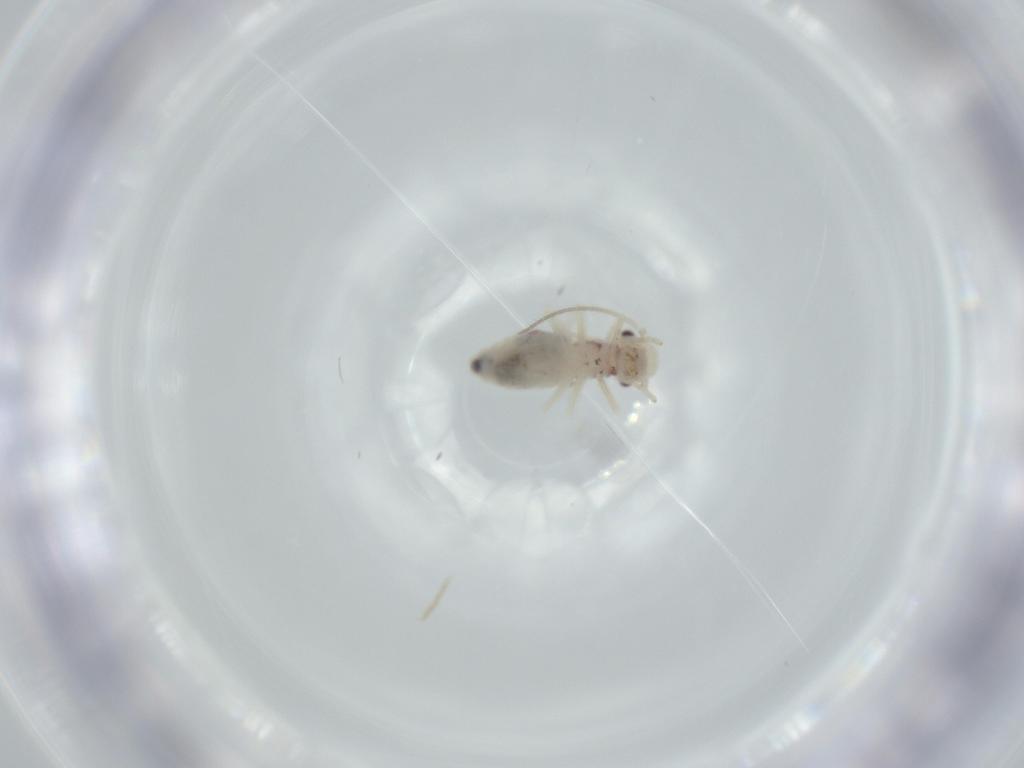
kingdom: Animalia
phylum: Arthropoda
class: Insecta
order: Psocodea
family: Caeciliusidae
